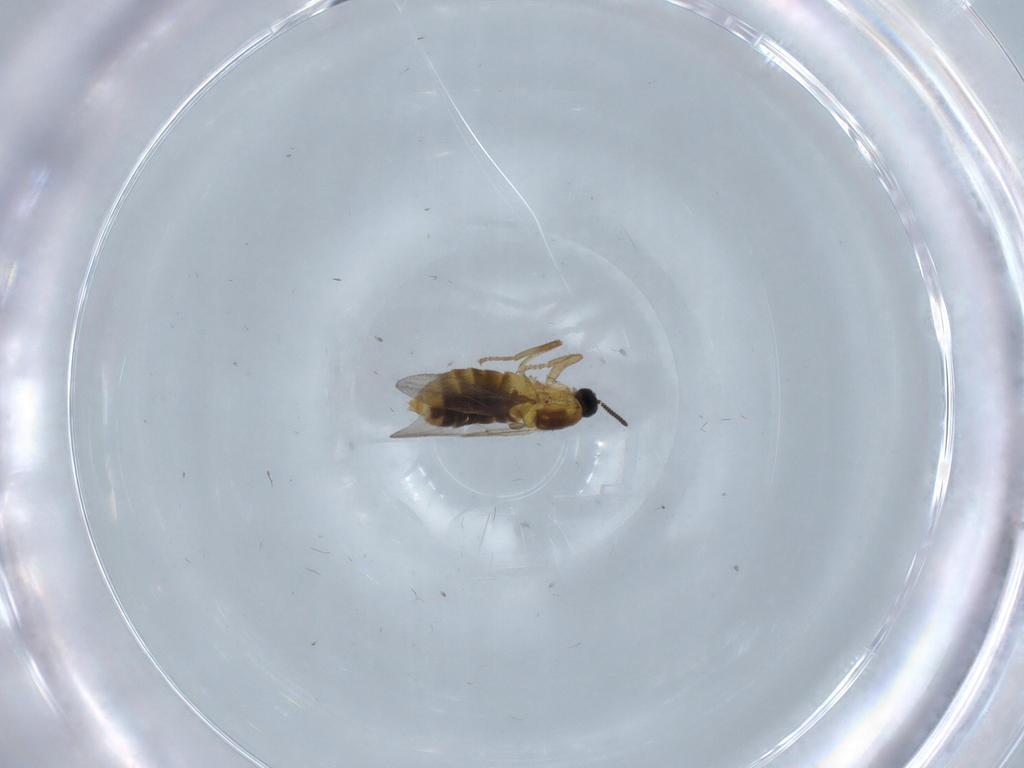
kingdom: Animalia
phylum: Arthropoda
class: Insecta
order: Diptera
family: Scatopsidae
